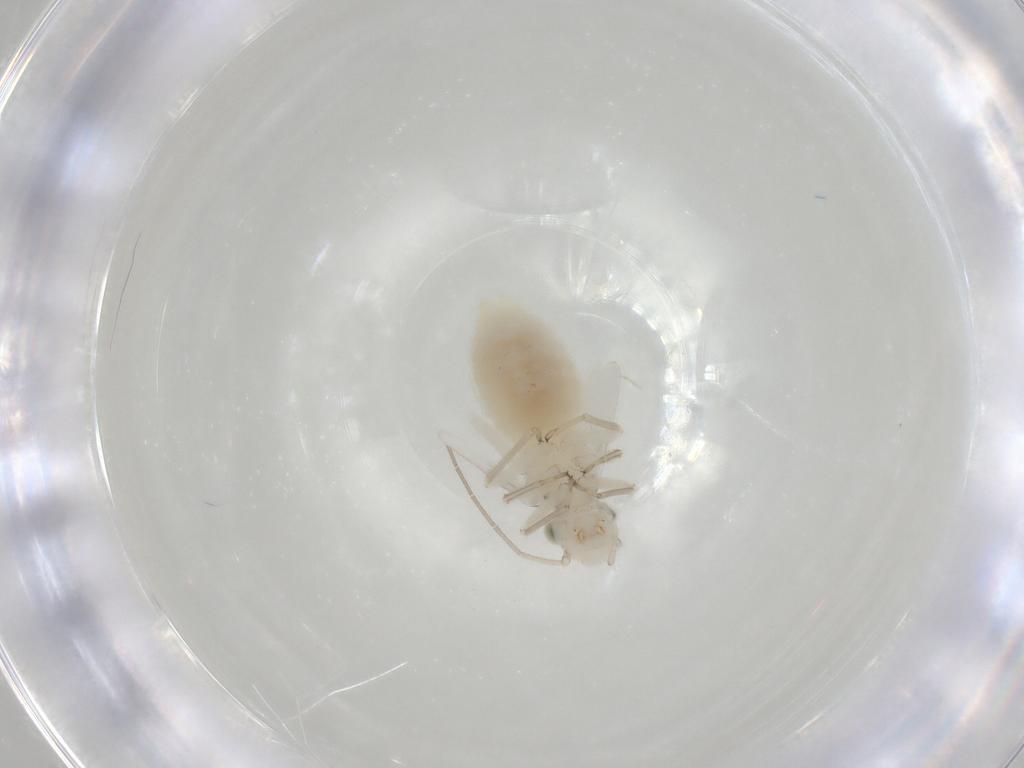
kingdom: Animalia
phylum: Arthropoda
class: Insecta
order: Psocodea
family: Caeciliusidae
